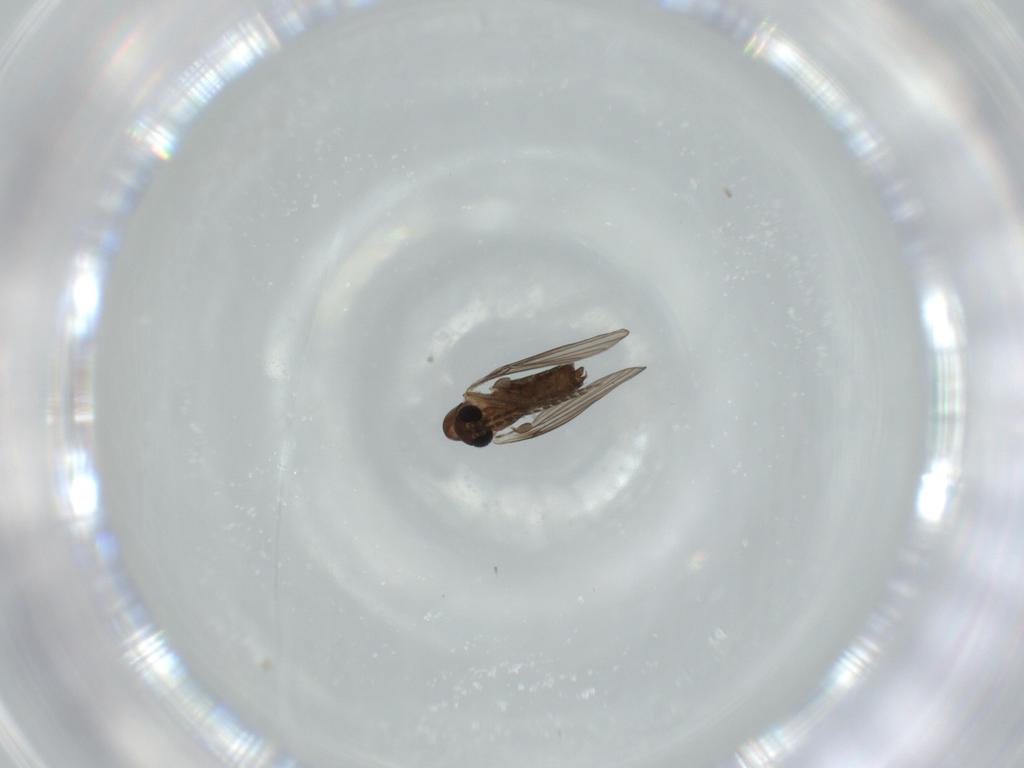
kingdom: Animalia
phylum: Arthropoda
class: Insecta
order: Diptera
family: Psychodidae
